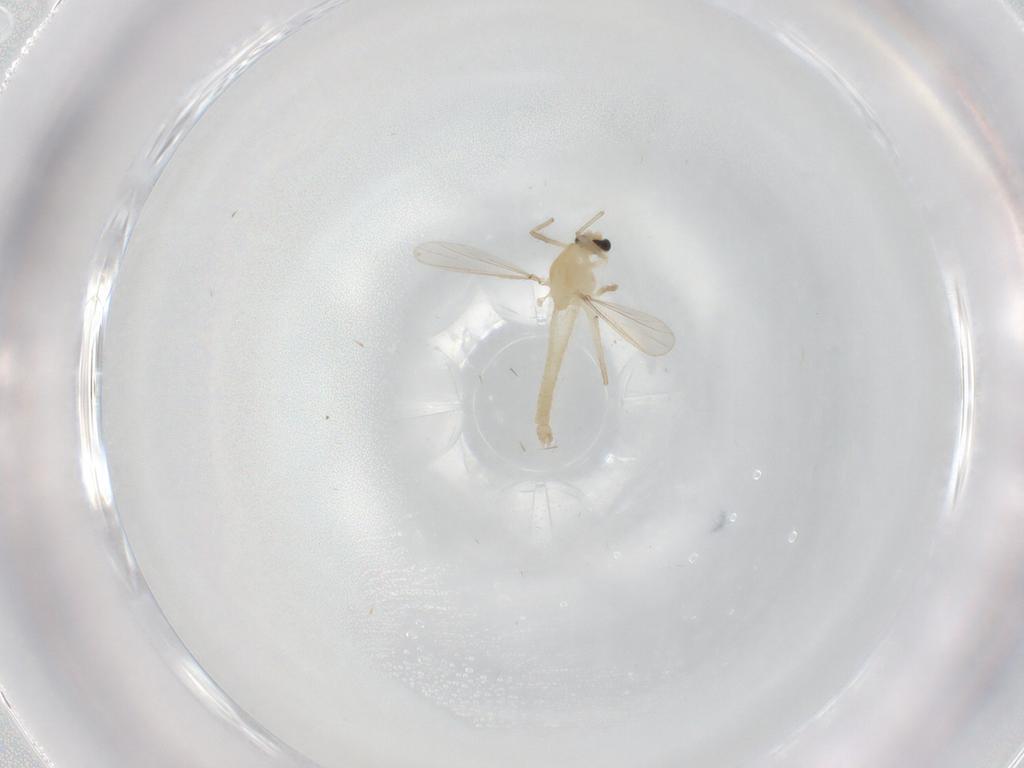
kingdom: Animalia
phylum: Arthropoda
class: Insecta
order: Diptera
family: Chironomidae
